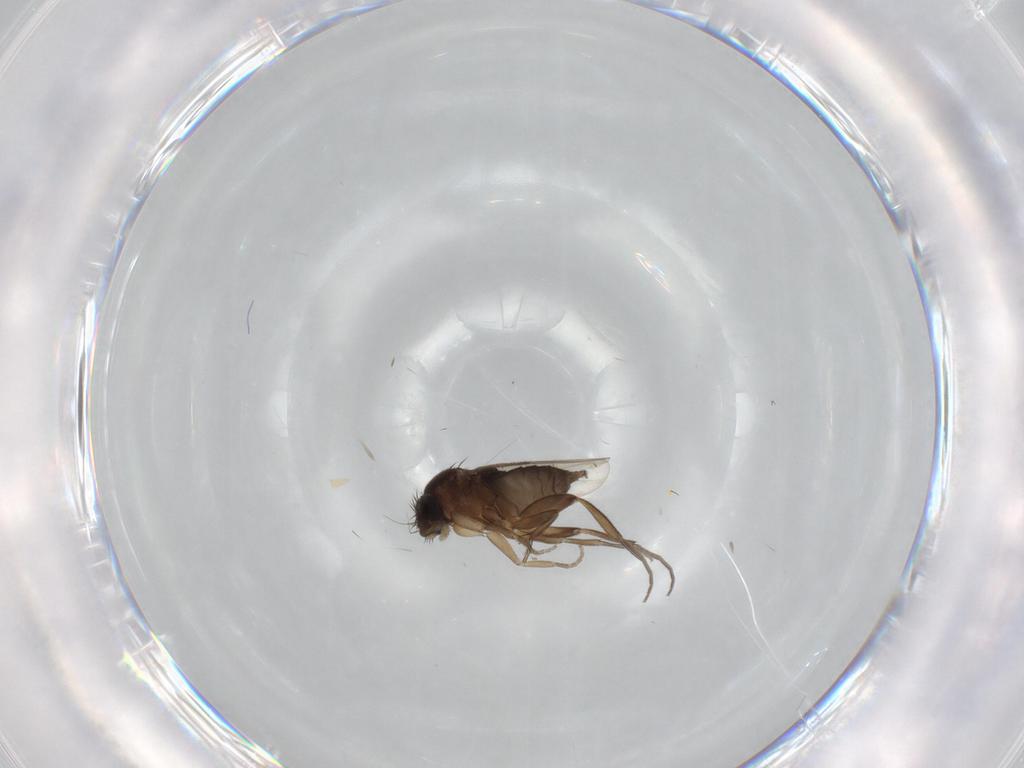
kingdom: Animalia
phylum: Arthropoda
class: Insecta
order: Diptera
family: Phoridae
